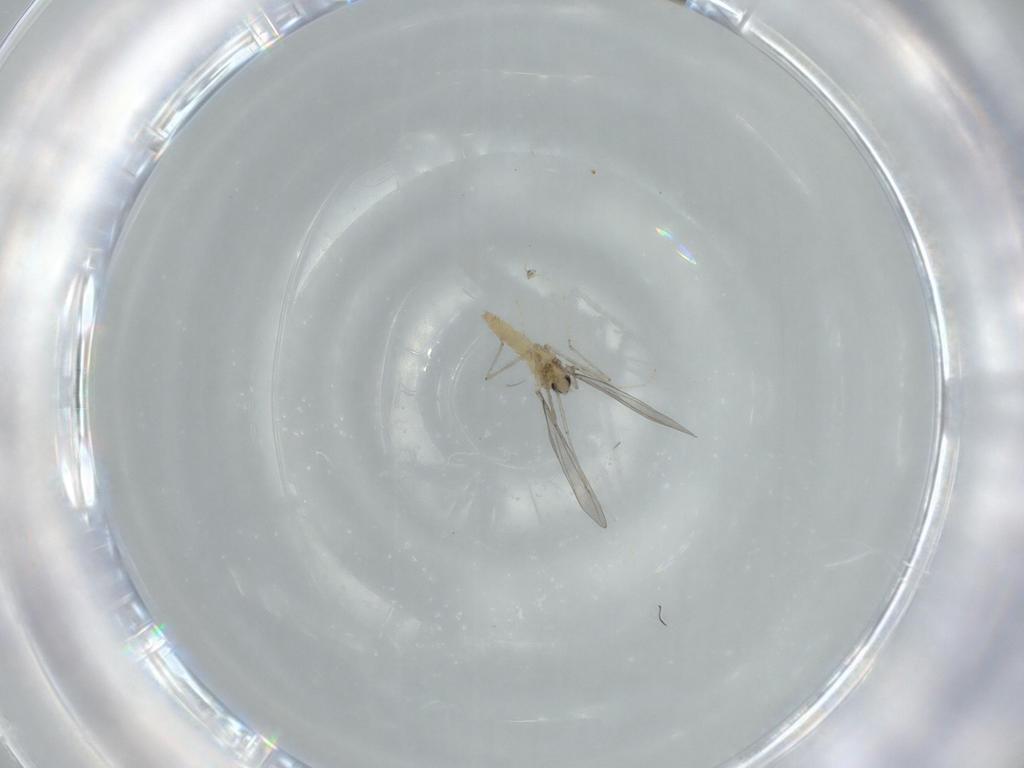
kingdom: Animalia
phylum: Arthropoda
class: Insecta
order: Diptera
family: Cecidomyiidae
